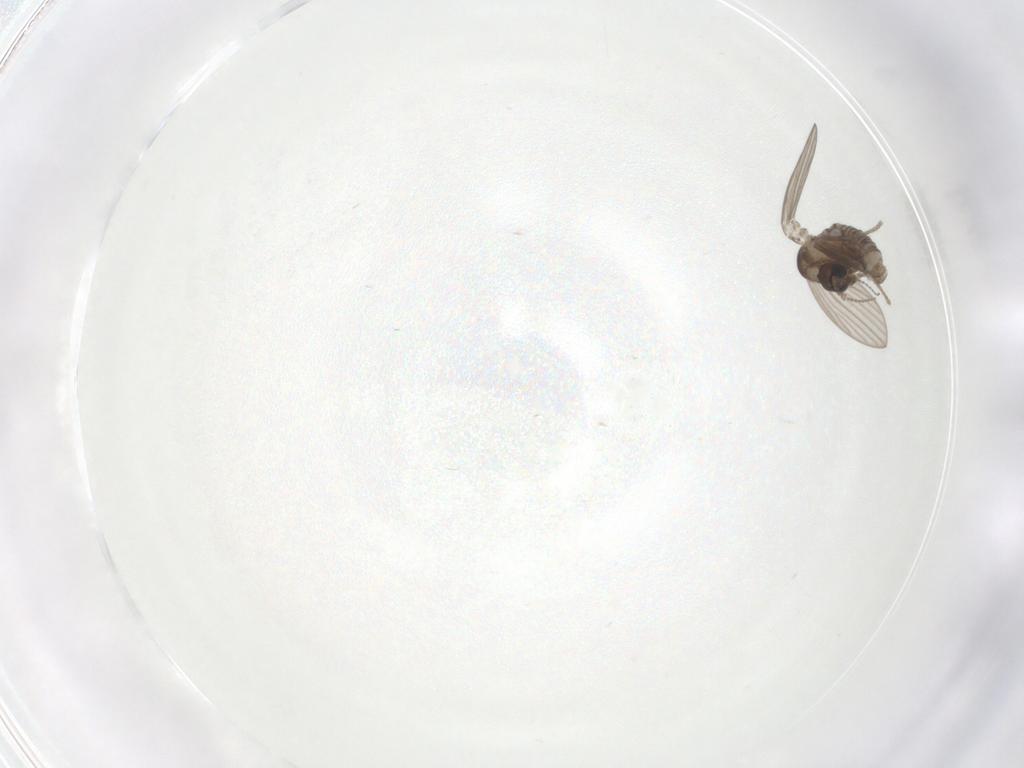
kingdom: Animalia
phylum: Arthropoda
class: Insecta
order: Diptera
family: Psychodidae
